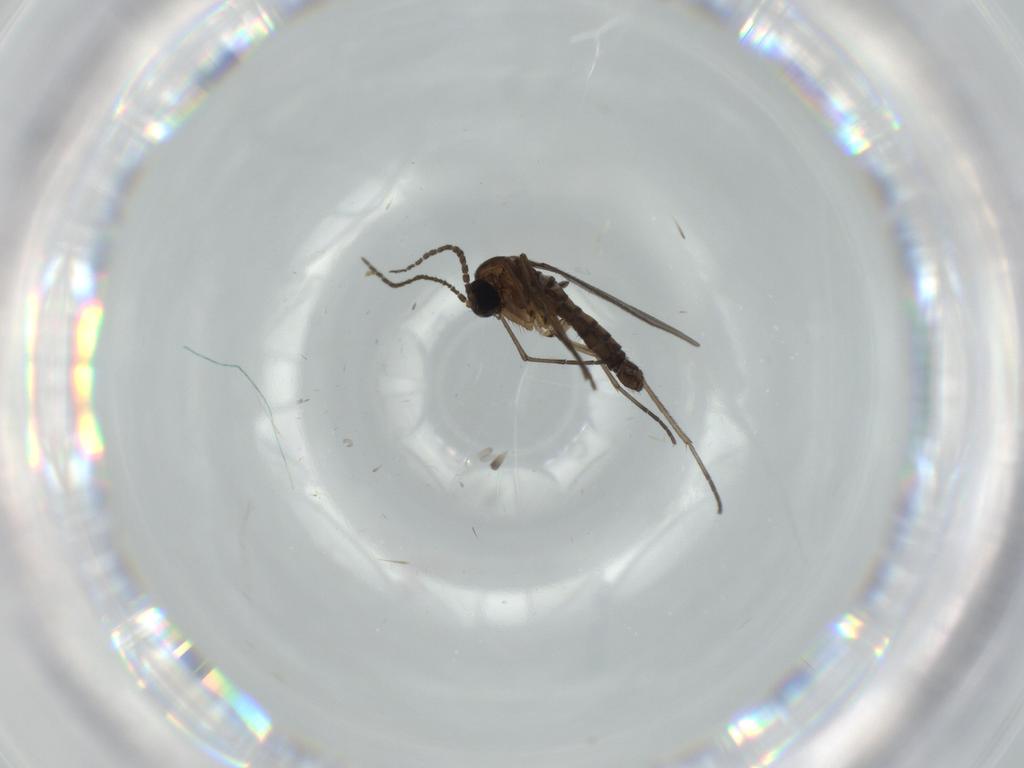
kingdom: Animalia
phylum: Arthropoda
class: Insecta
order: Diptera
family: Sciaridae
